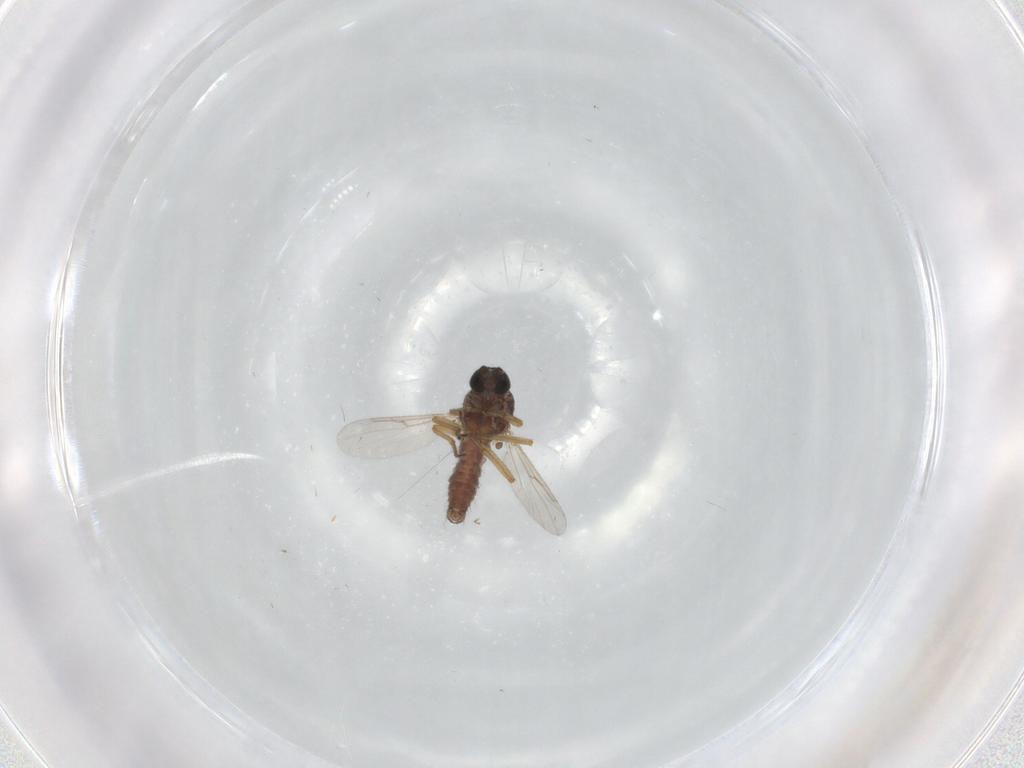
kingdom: Animalia
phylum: Arthropoda
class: Insecta
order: Diptera
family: Ceratopogonidae
